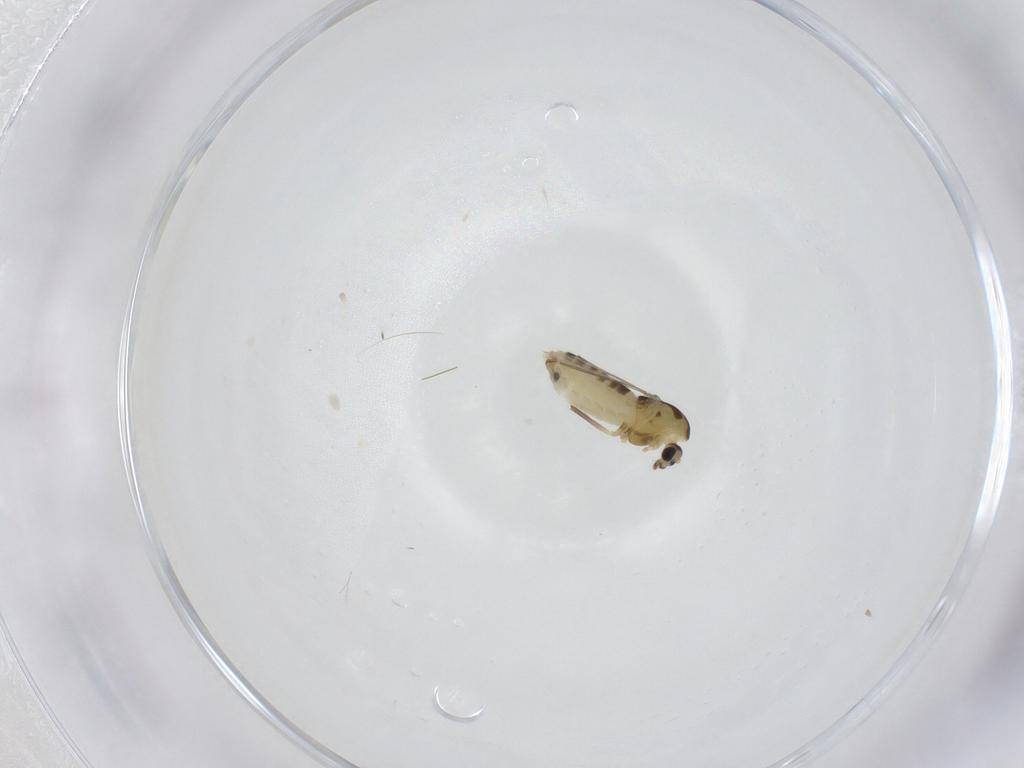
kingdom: Animalia
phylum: Arthropoda
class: Insecta
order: Diptera
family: Chironomidae
